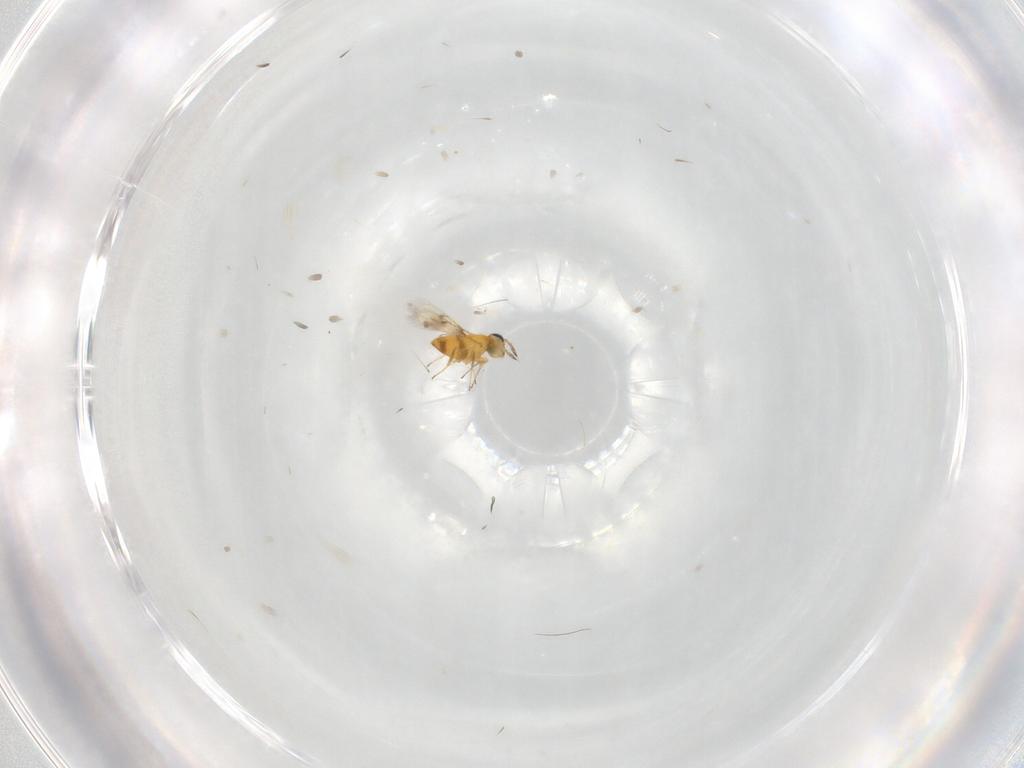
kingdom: Animalia
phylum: Arthropoda
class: Insecta
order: Hymenoptera
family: Aphelinidae
